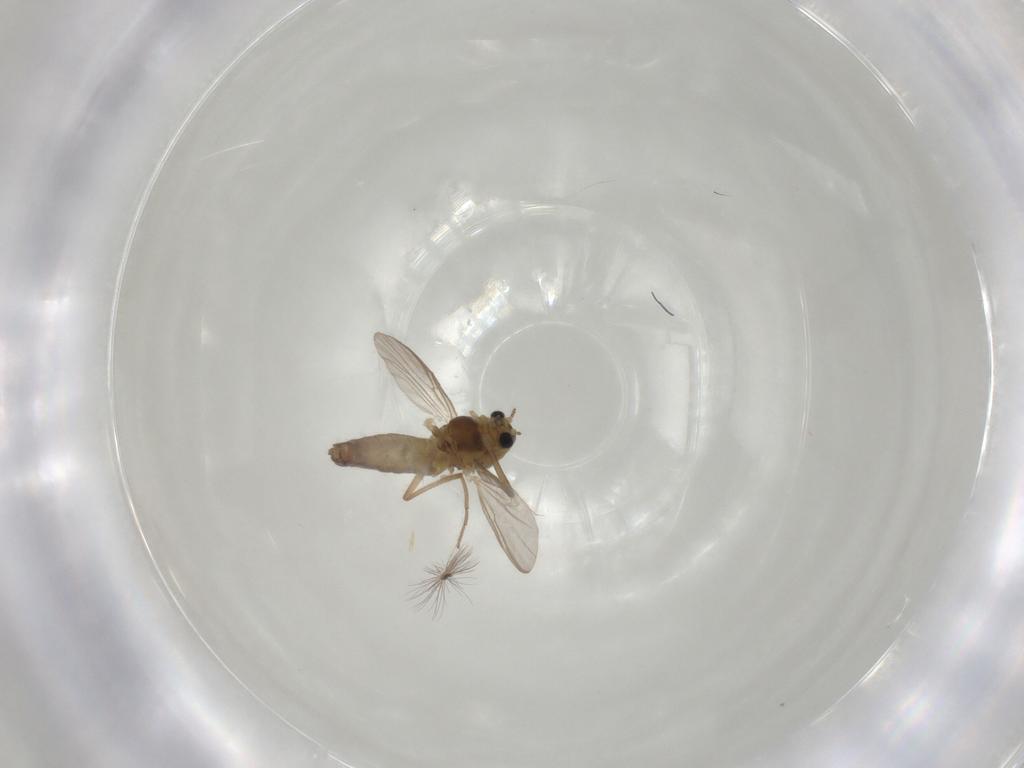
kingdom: Animalia
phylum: Arthropoda
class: Insecta
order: Diptera
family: Chironomidae
